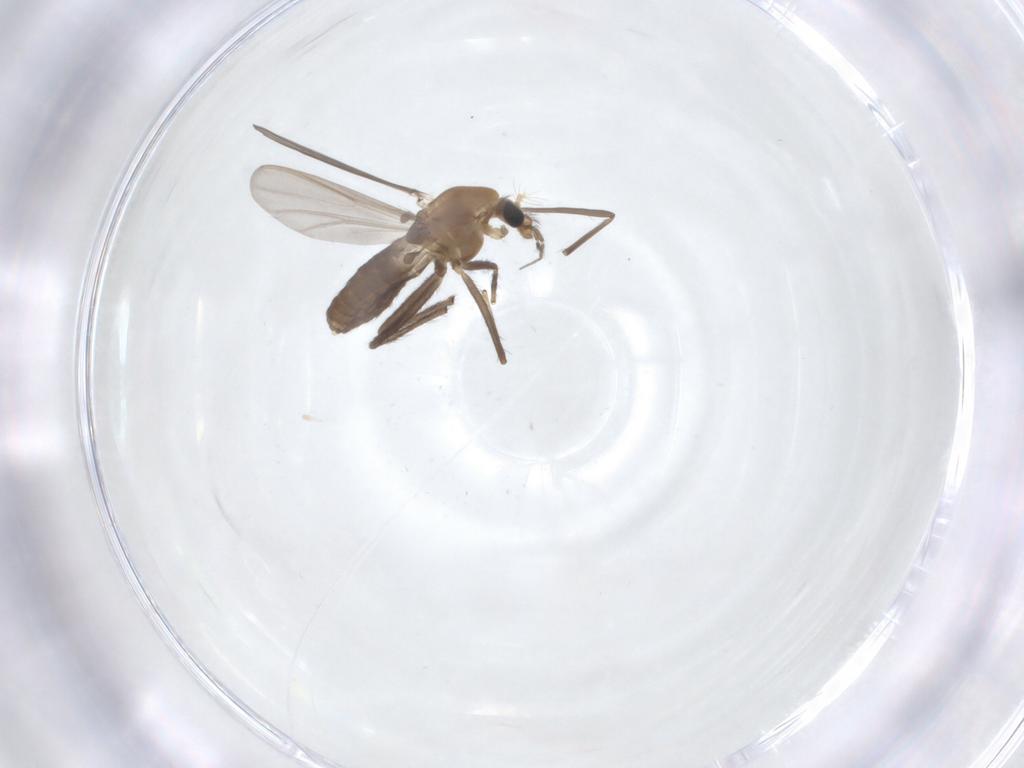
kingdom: Animalia
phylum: Arthropoda
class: Insecta
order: Diptera
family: Chironomidae
